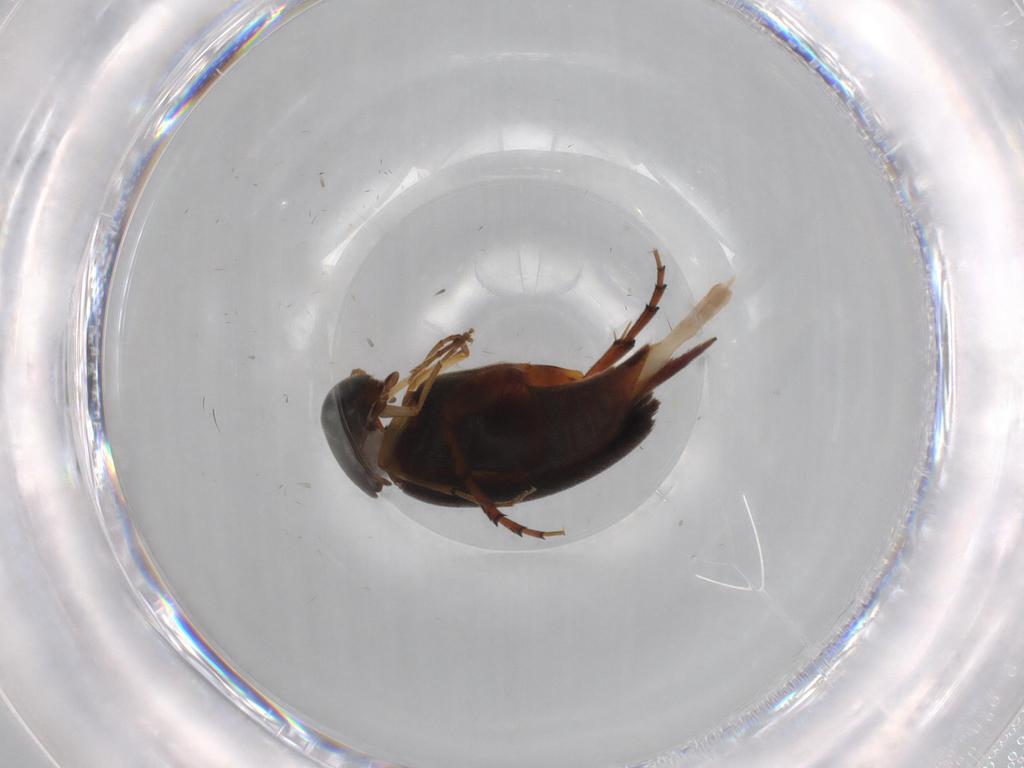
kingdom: Animalia
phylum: Arthropoda
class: Insecta
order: Coleoptera
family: Mordellidae
